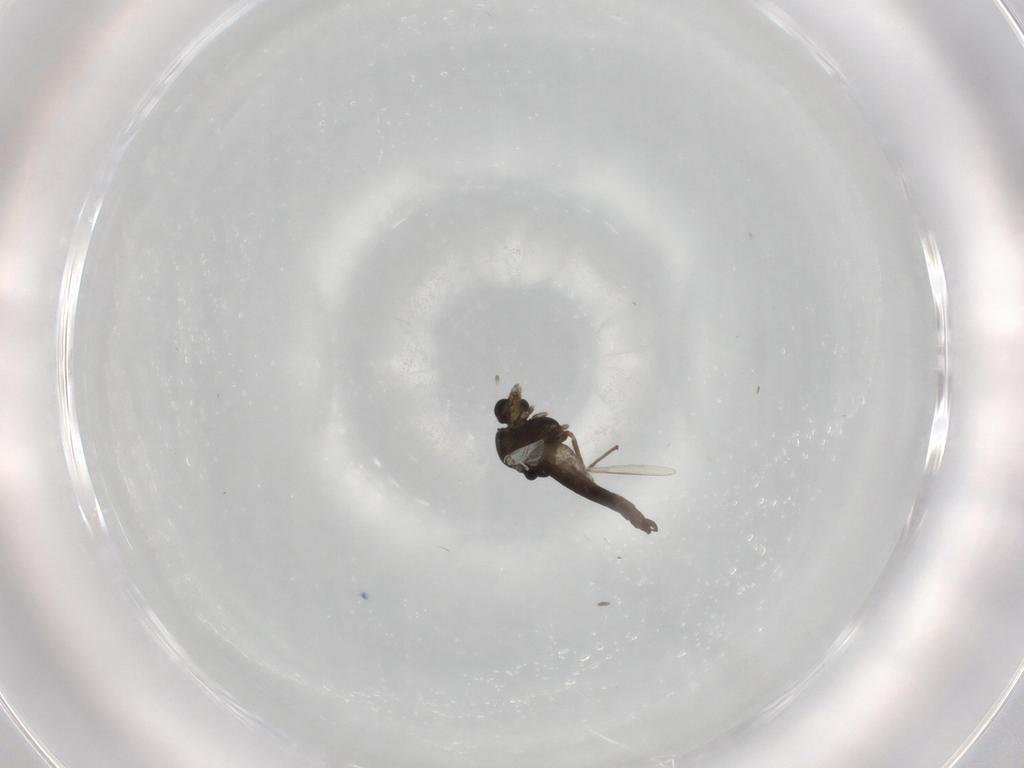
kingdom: Animalia
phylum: Arthropoda
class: Insecta
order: Diptera
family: Chironomidae
